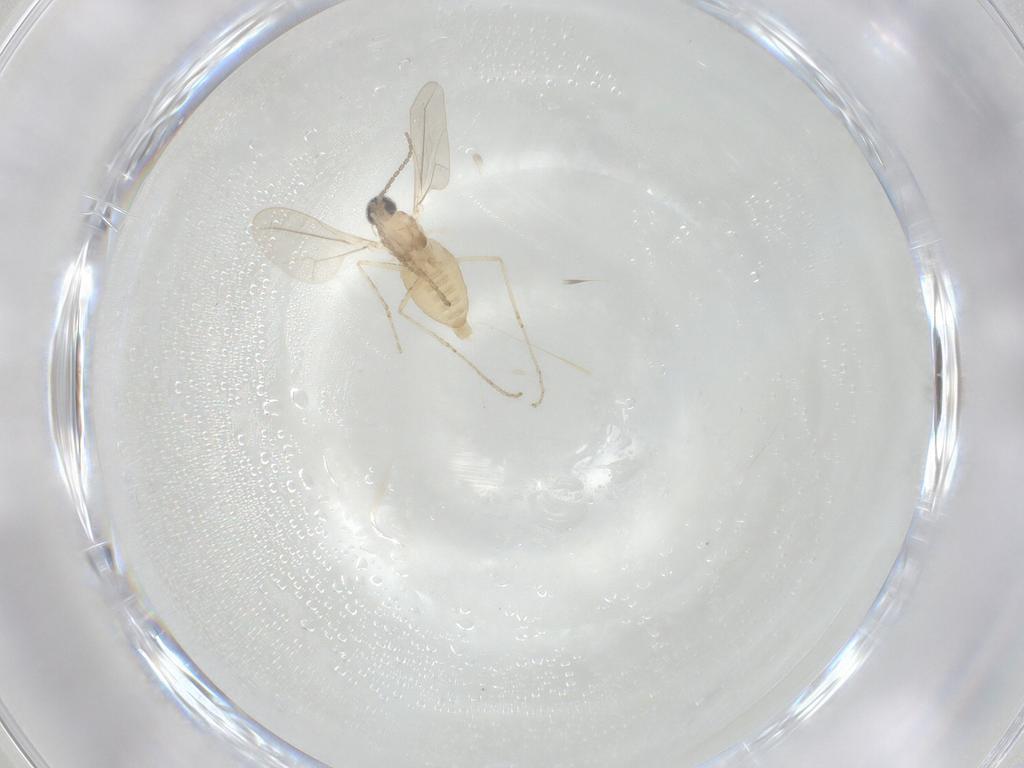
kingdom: Animalia
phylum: Arthropoda
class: Insecta
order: Diptera
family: Cecidomyiidae
